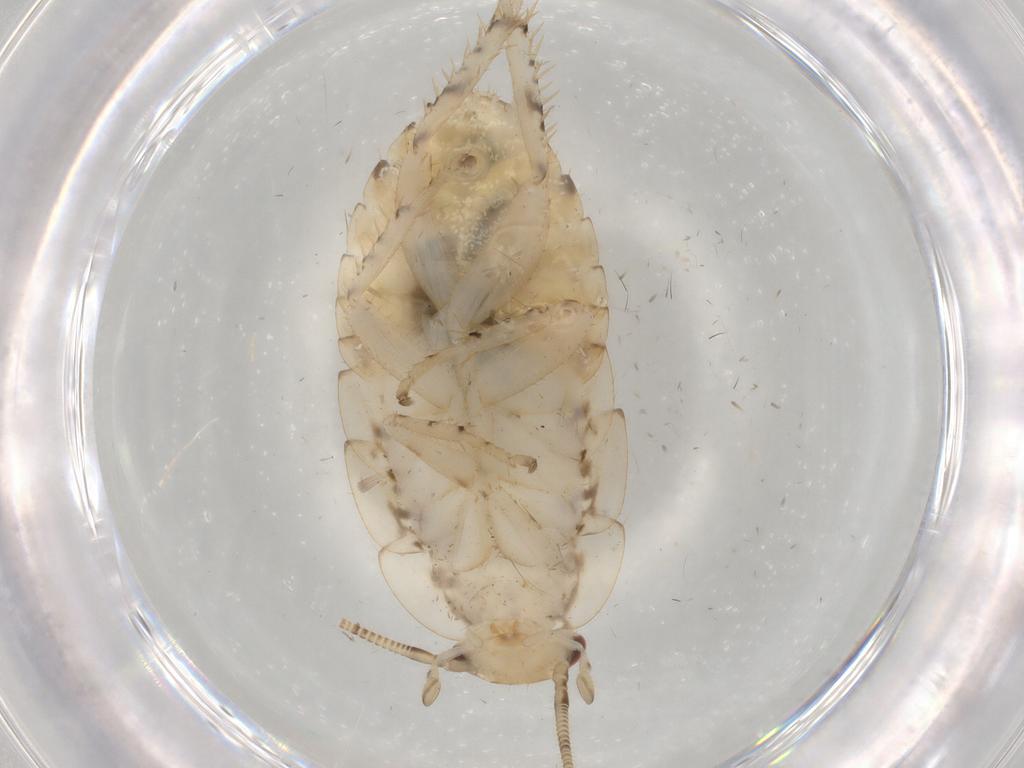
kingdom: Animalia
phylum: Arthropoda
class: Insecta
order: Blattodea
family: Ectobiidae
